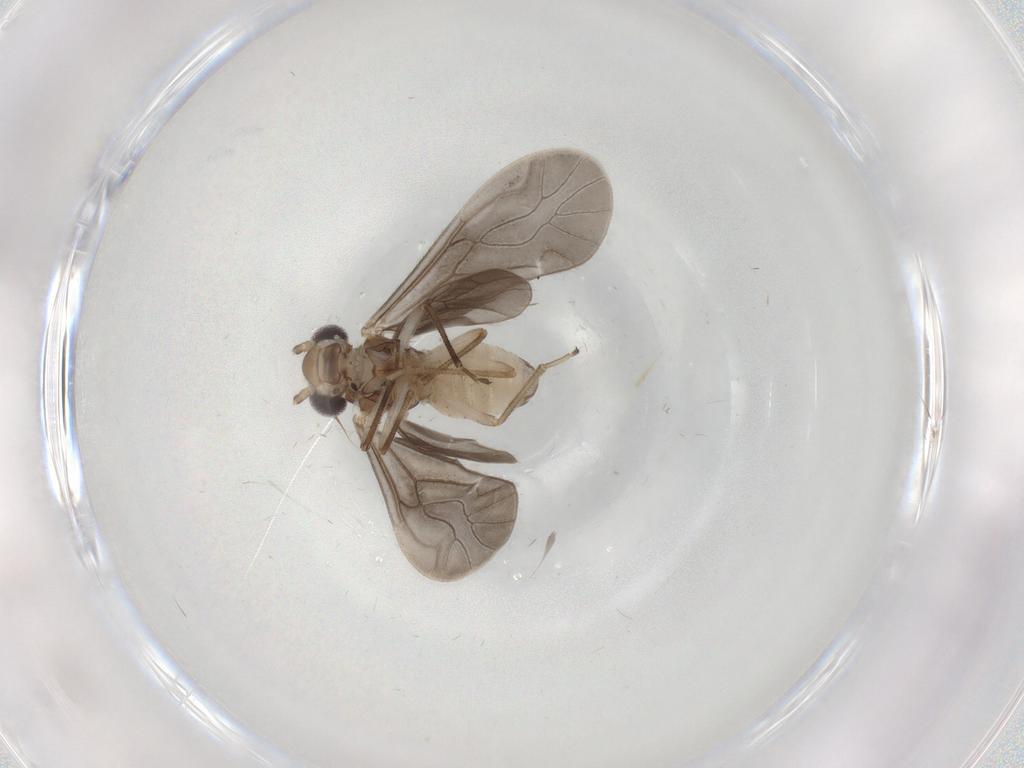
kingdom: Animalia
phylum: Arthropoda
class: Insecta
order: Psocodea
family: Caeciliusidae
